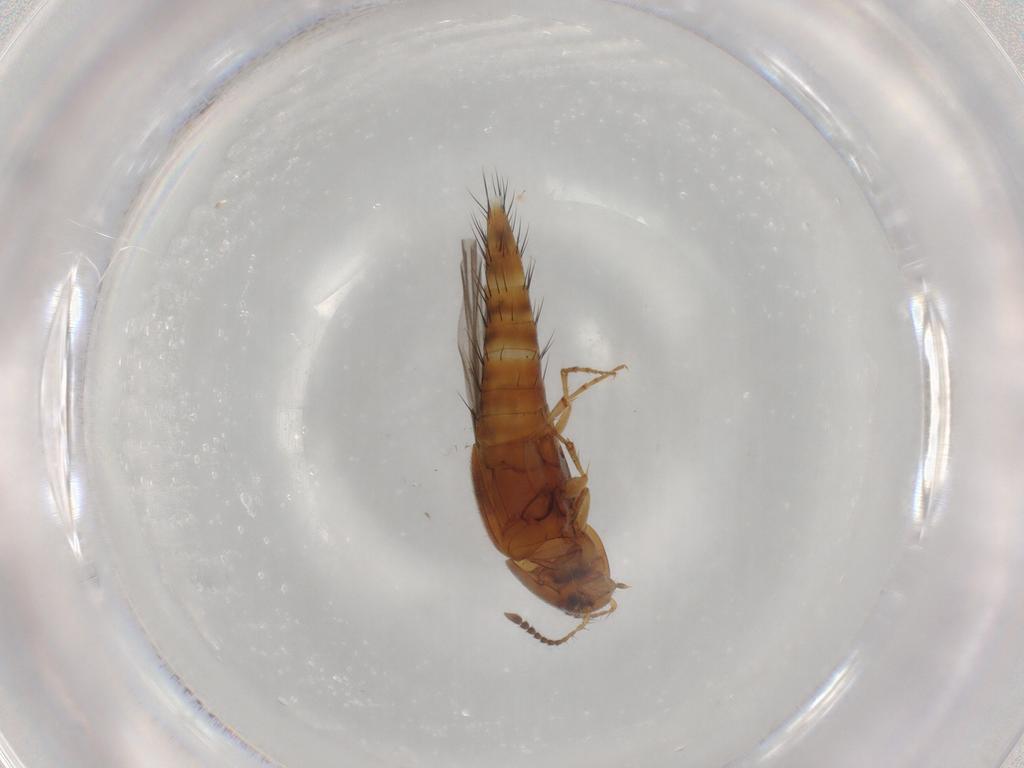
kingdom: Animalia
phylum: Arthropoda
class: Insecta
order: Coleoptera
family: Staphylinidae
